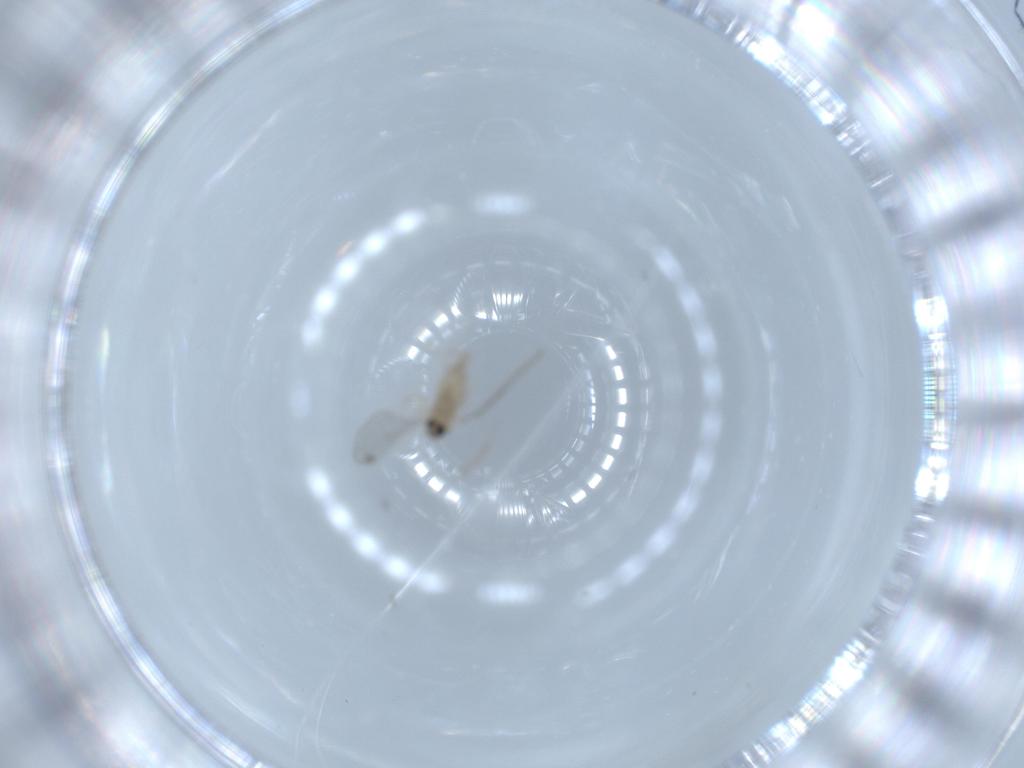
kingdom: Animalia
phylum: Arthropoda
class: Insecta
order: Diptera
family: Cecidomyiidae
